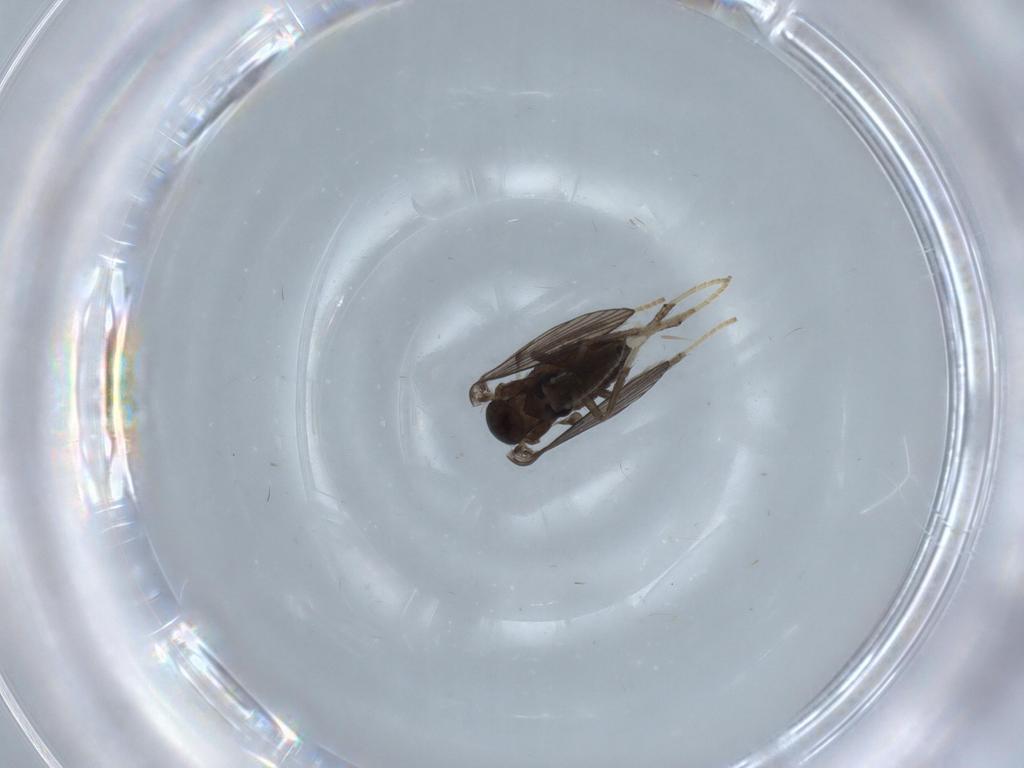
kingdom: Animalia
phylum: Arthropoda
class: Insecta
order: Diptera
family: Psychodidae
